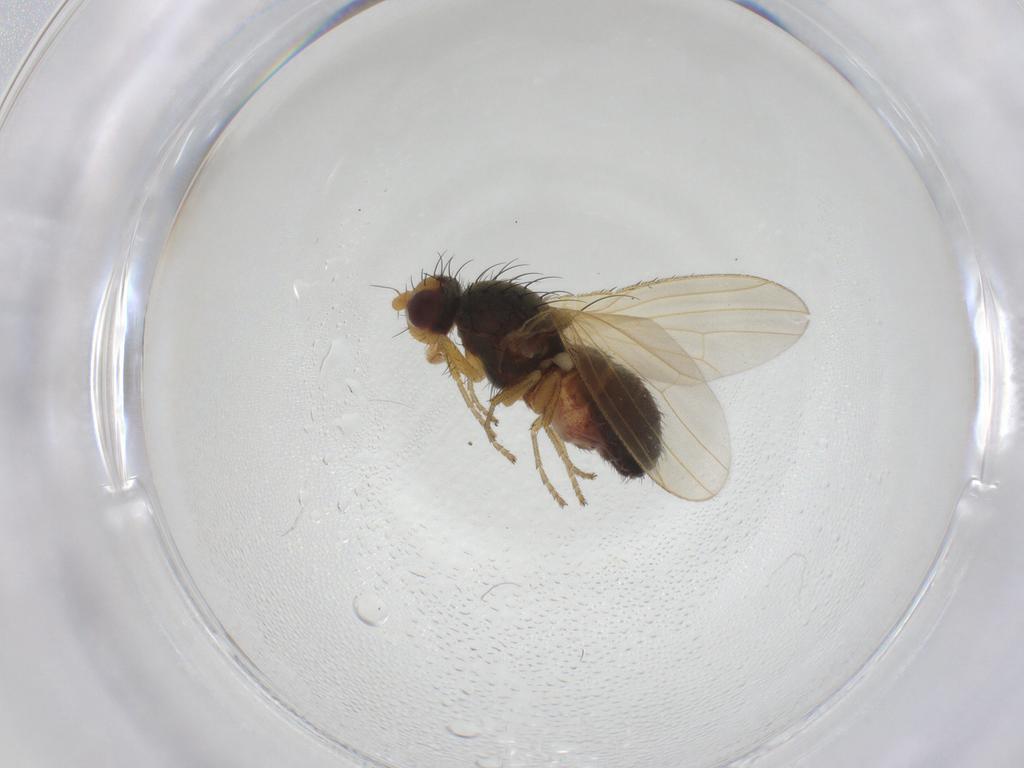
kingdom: Animalia
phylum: Arthropoda
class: Insecta
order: Diptera
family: Heleomyzidae
